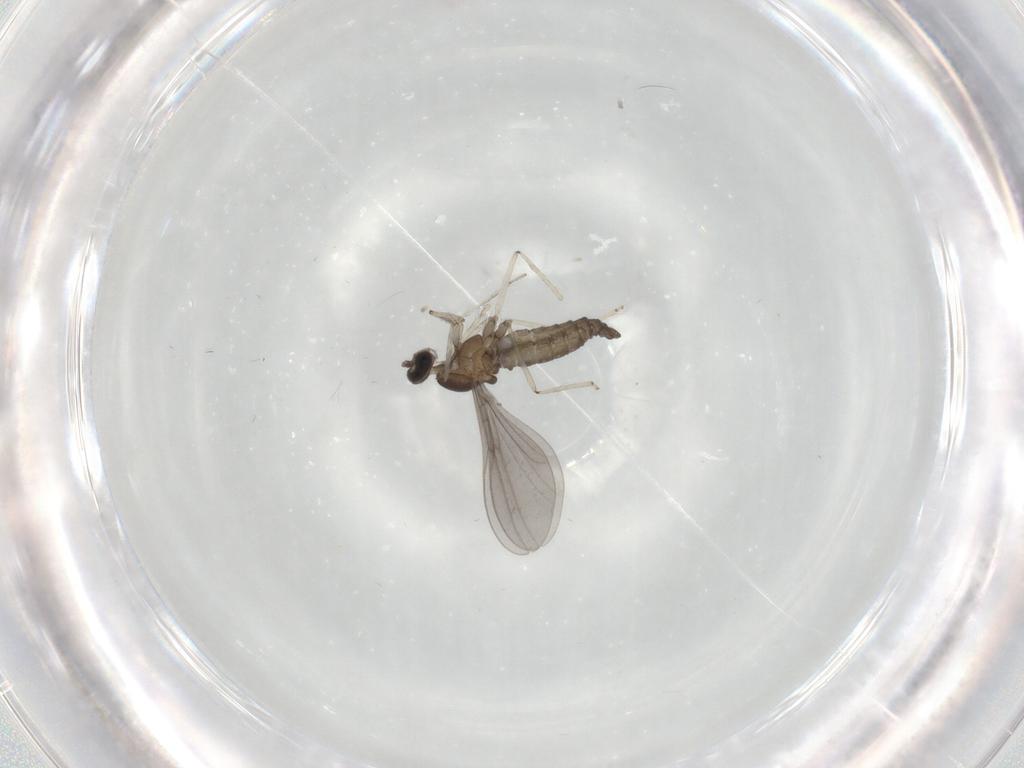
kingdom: Animalia
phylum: Arthropoda
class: Insecta
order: Diptera
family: Cecidomyiidae
